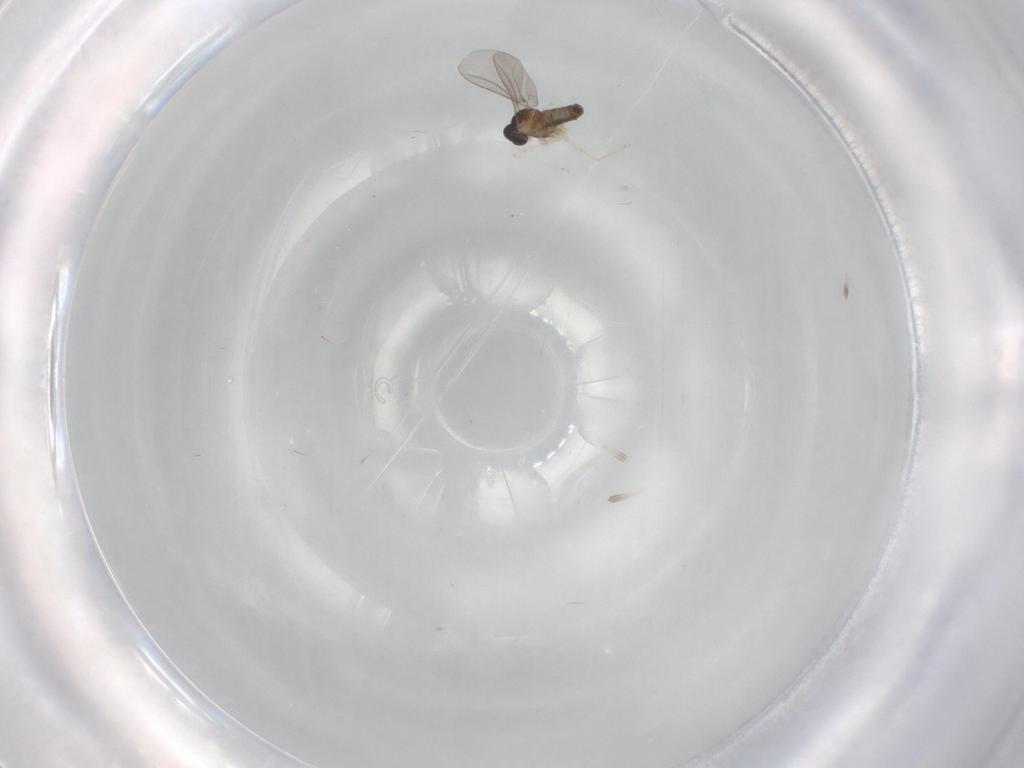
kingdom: Animalia
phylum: Arthropoda
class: Insecta
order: Diptera
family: Cecidomyiidae
